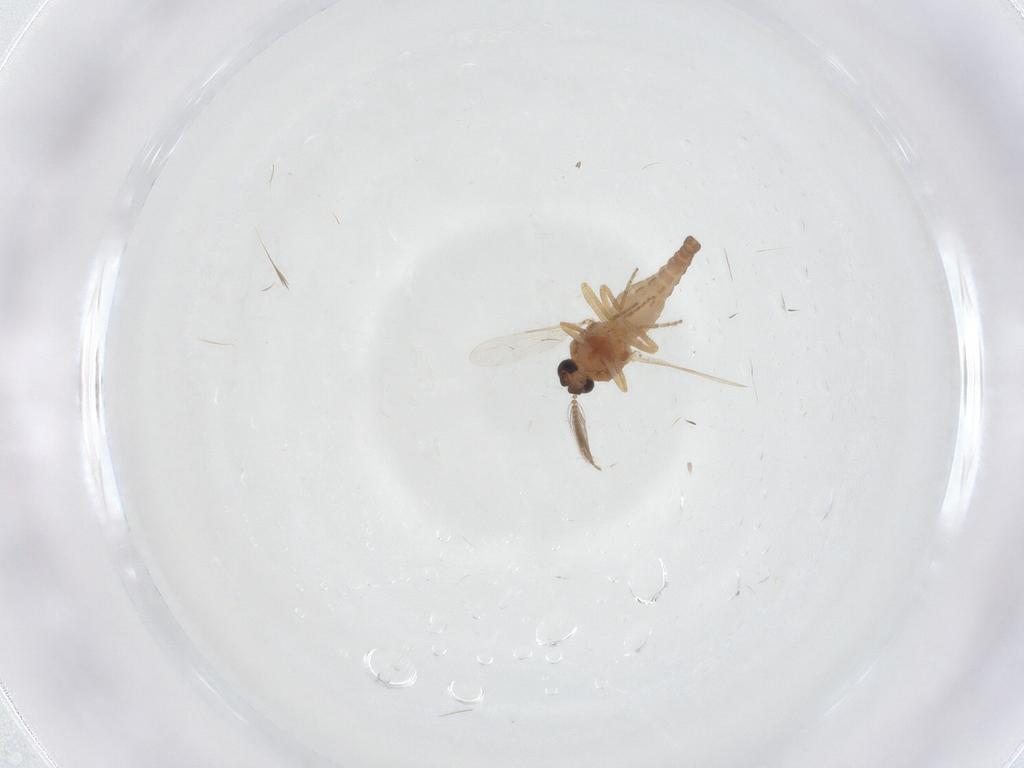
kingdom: Animalia
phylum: Arthropoda
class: Insecta
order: Diptera
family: Ceratopogonidae
